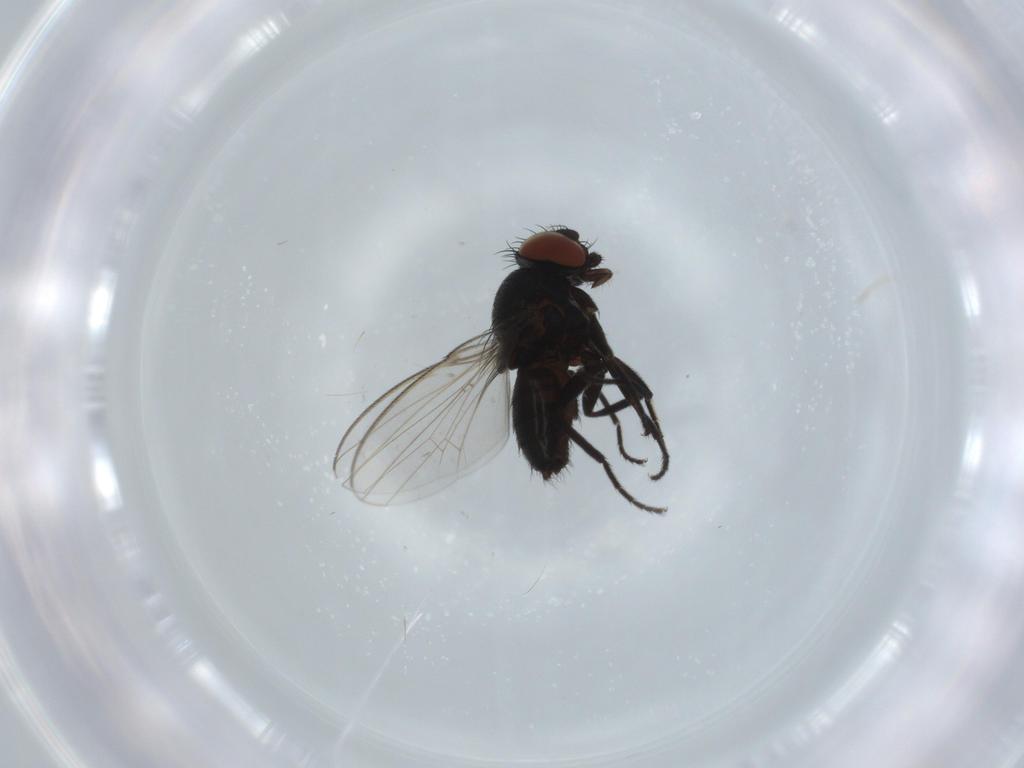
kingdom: Animalia
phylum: Arthropoda
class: Insecta
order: Diptera
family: Milichiidae
